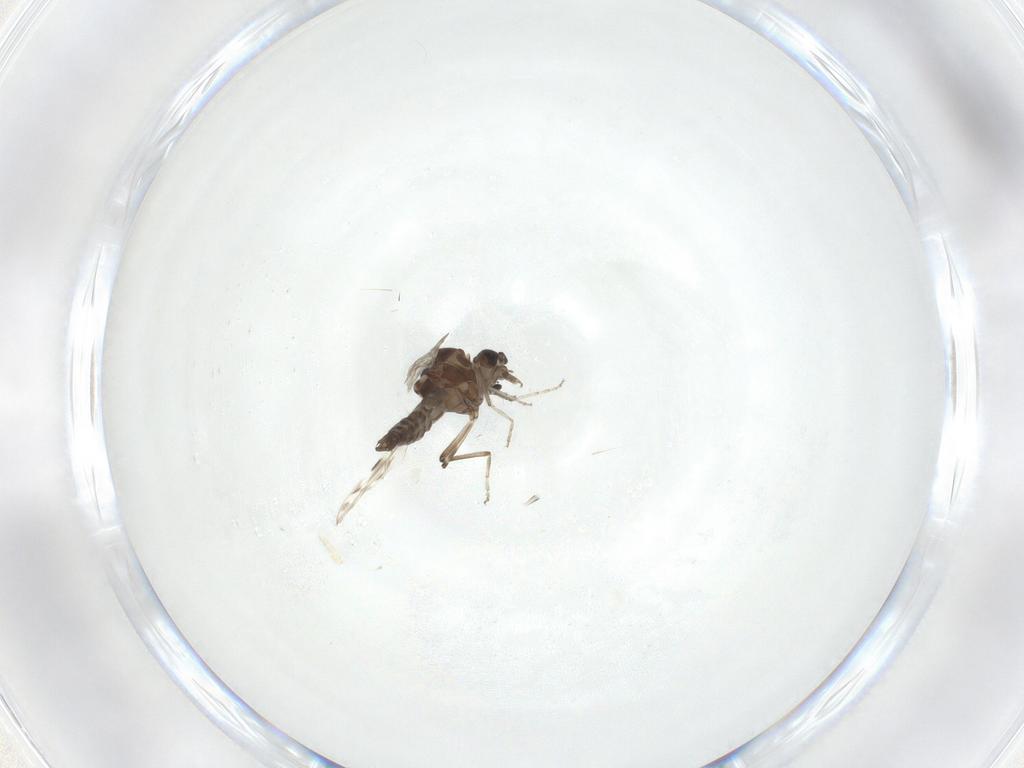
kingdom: Animalia
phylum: Arthropoda
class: Insecta
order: Diptera
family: Ceratopogonidae
